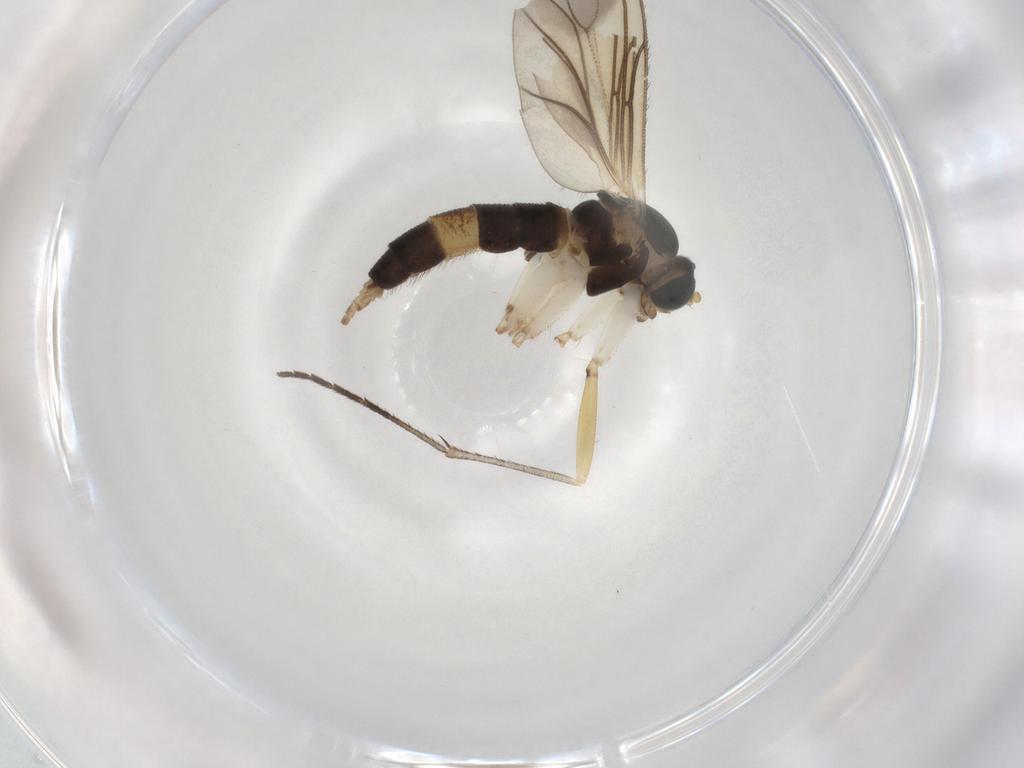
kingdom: Animalia
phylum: Arthropoda
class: Insecta
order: Diptera
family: Sciaridae
